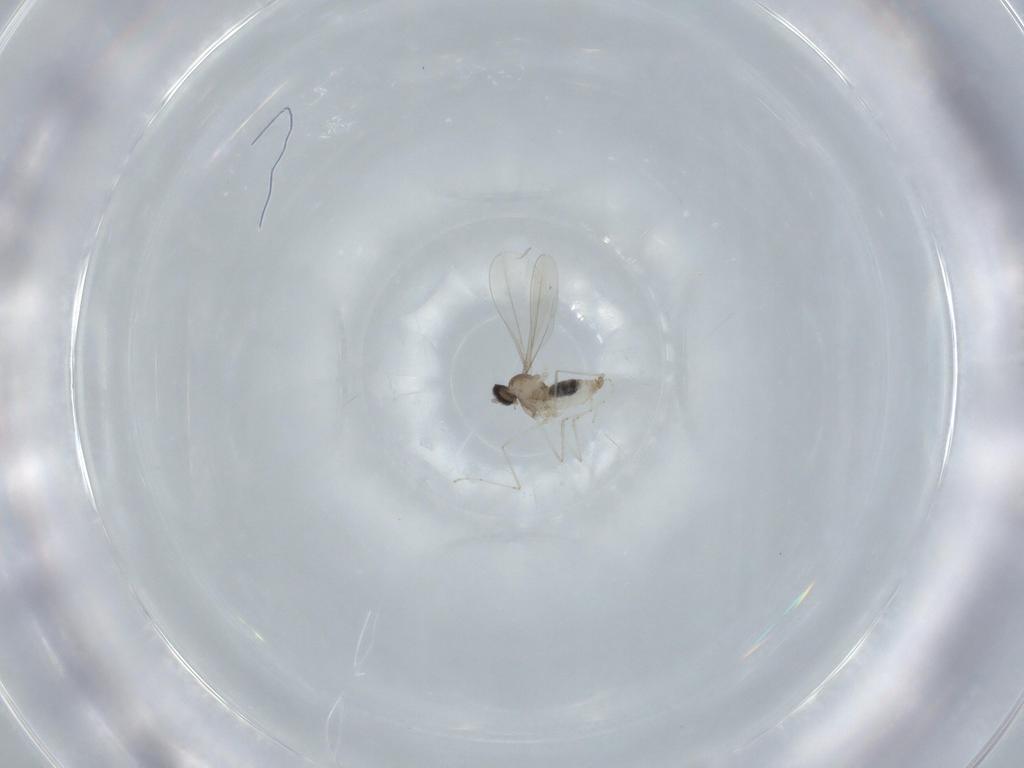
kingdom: Animalia
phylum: Arthropoda
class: Insecta
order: Diptera
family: Cecidomyiidae
